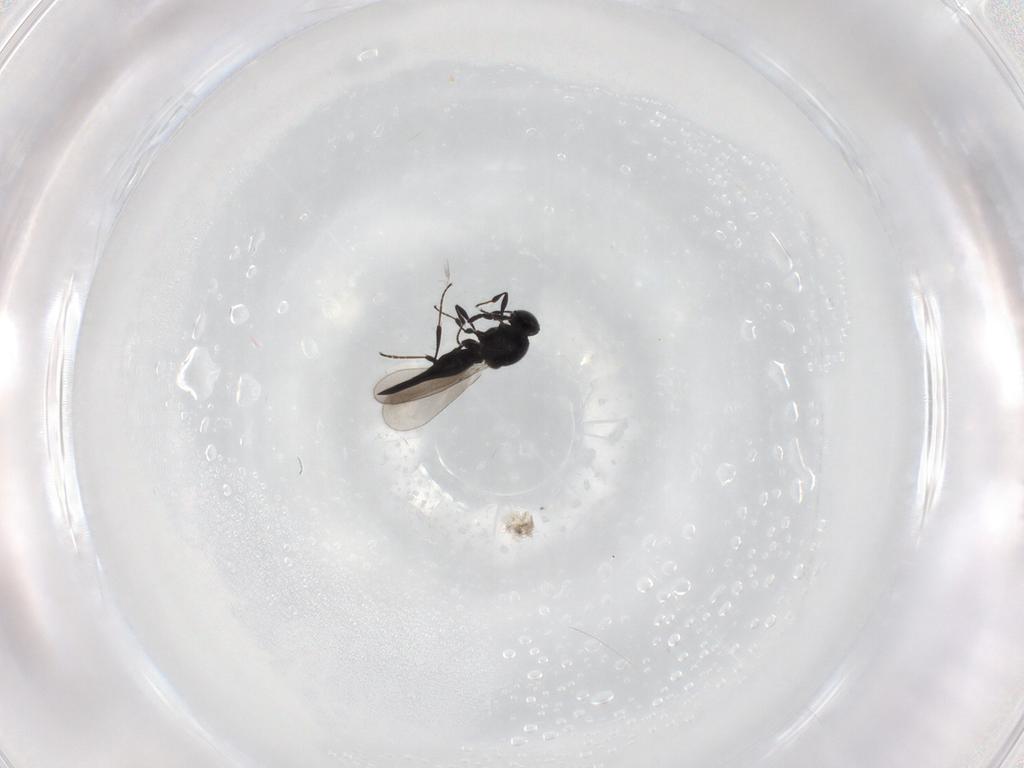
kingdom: Animalia
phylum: Arthropoda
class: Insecta
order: Hymenoptera
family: Platygastridae
